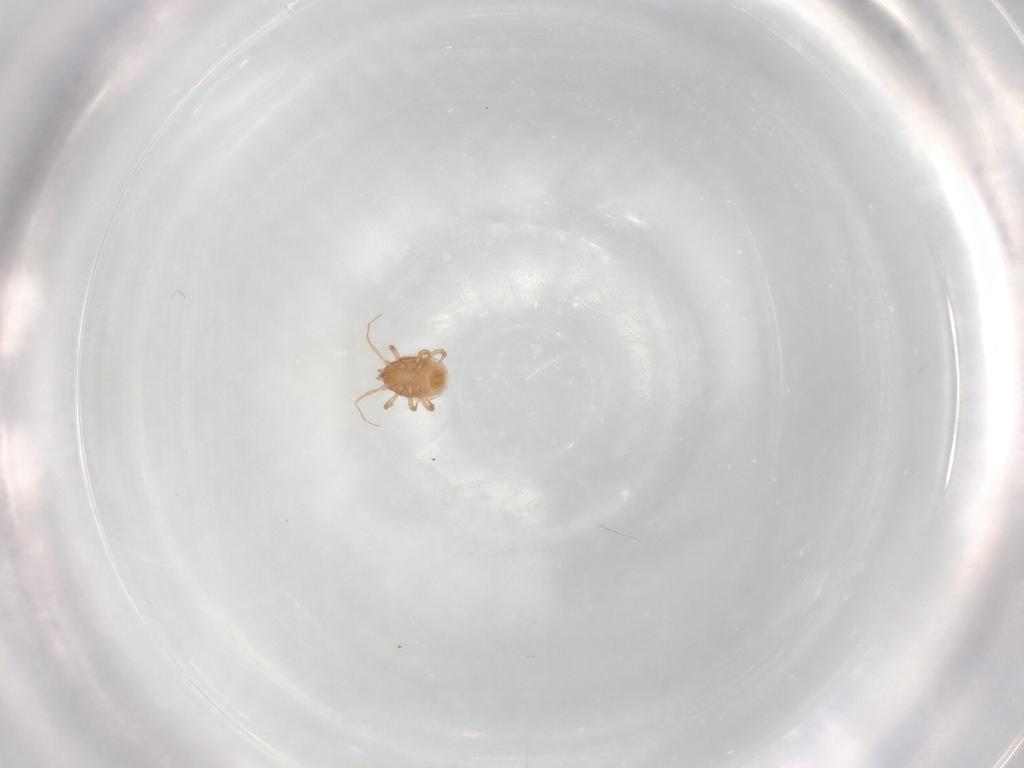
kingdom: Animalia
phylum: Arthropoda
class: Arachnida
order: Mesostigmata
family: Blattisociidae
